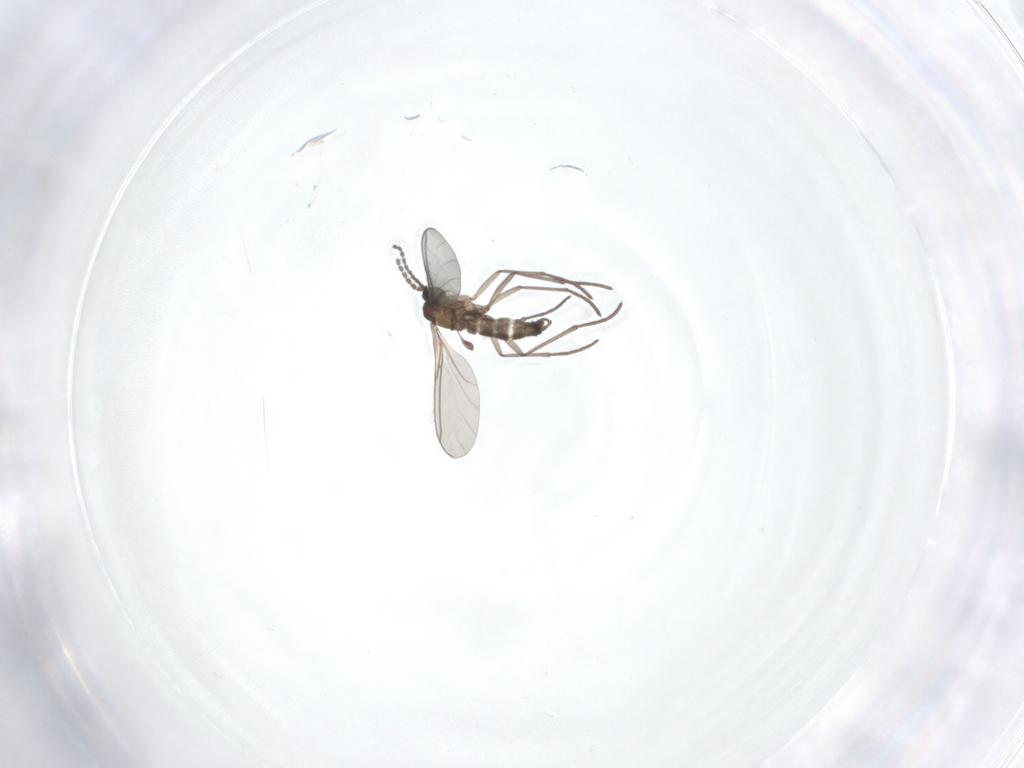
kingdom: Animalia
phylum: Arthropoda
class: Insecta
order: Diptera
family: Sciaridae
